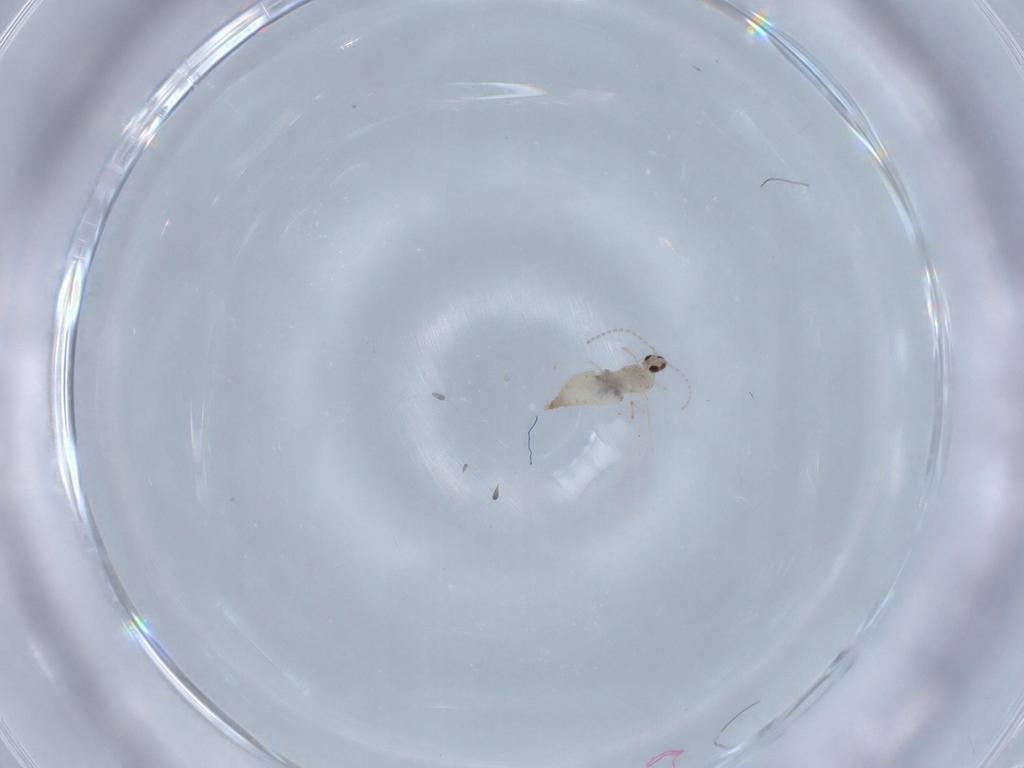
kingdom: Animalia
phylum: Arthropoda
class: Insecta
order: Diptera
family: Cecidomyiidae
